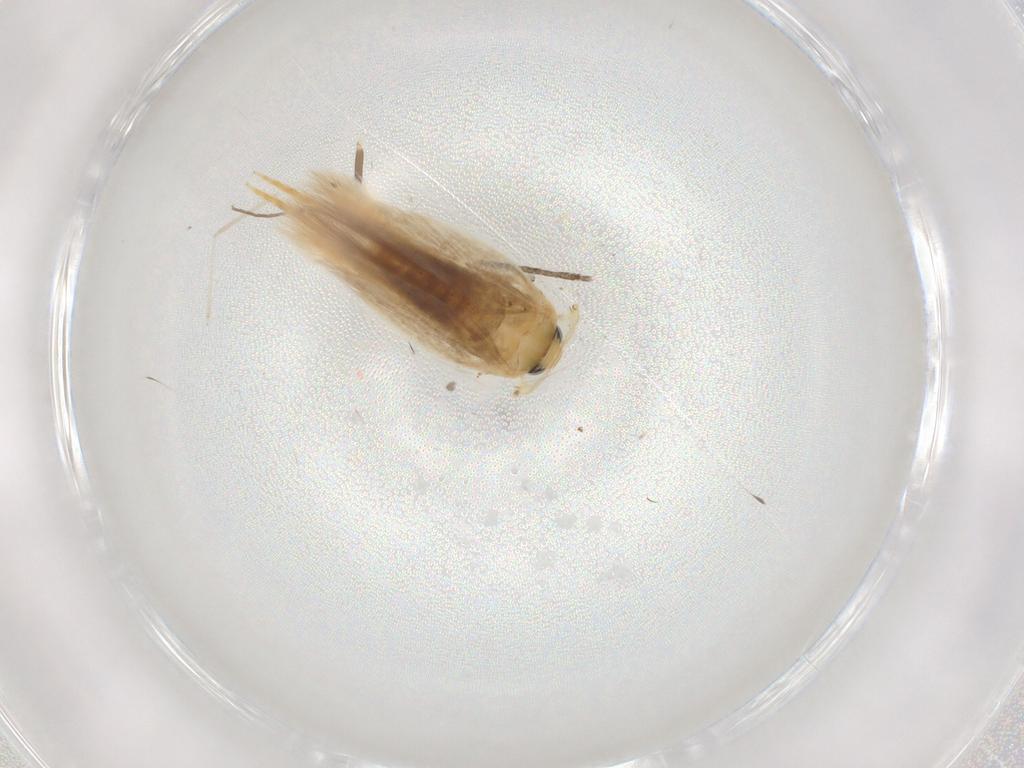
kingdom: Animalia
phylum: Arthropoda
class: Insecta
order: Lepidoptera
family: Opostegidae
